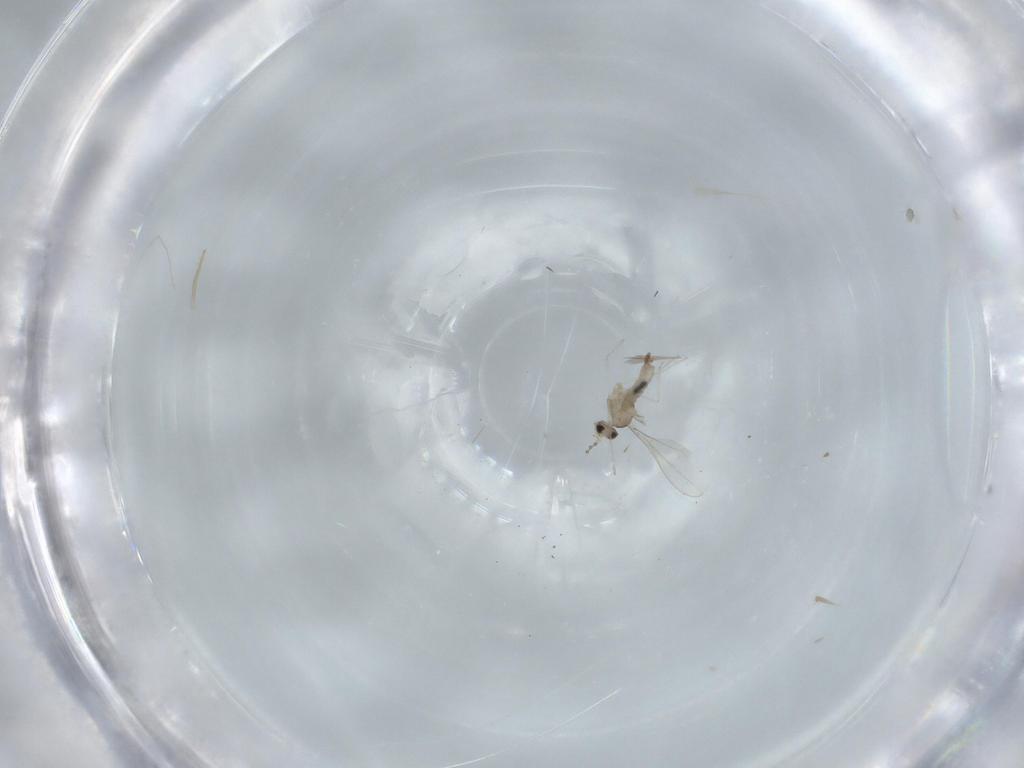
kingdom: Animalia
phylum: Arthropoda
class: Insecta
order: Diptera
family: Cecidomyiidae
